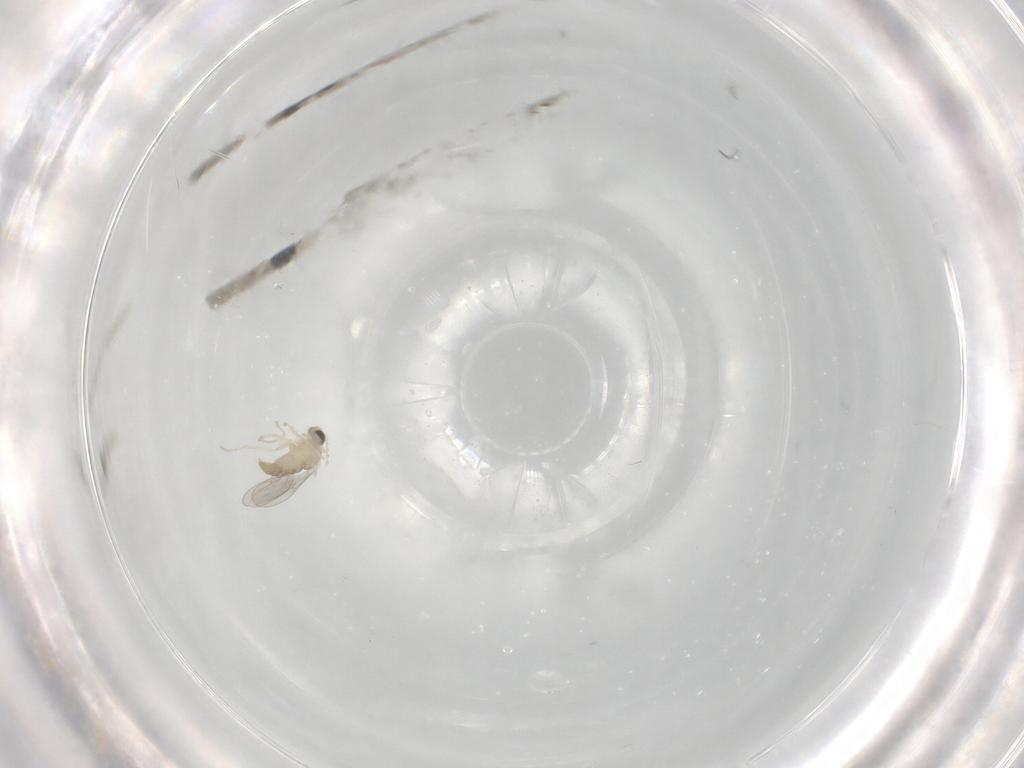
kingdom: Animalia
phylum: Arthropoda
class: Insecta
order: Diptera
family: Cecidomyiidae
